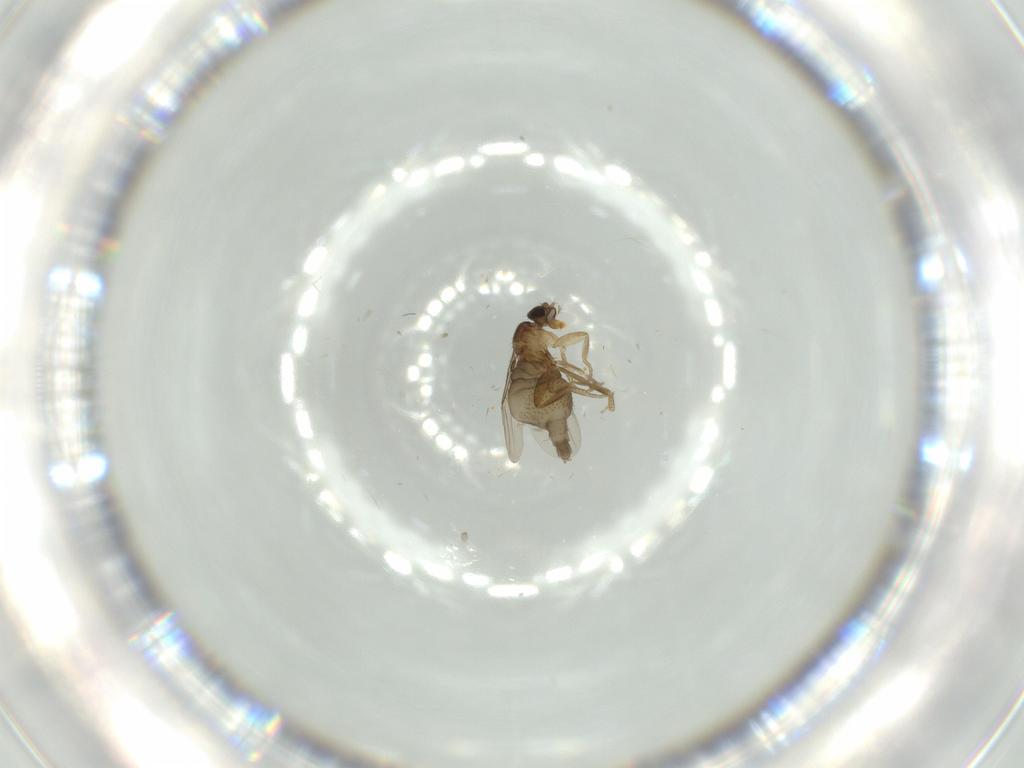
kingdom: Animalia
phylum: Arthropoda
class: Insecta
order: Diptera
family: Phoridae
